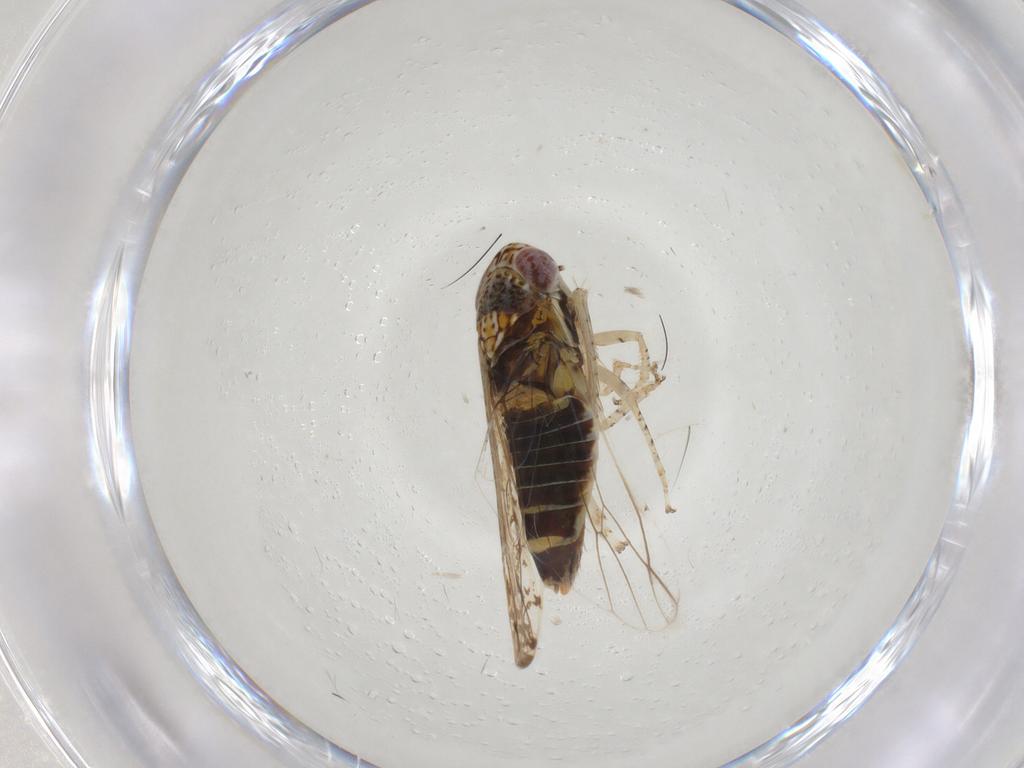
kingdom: Animalia
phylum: Arthropoda
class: Insecta
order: Hemiptera
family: Cicadellidae
